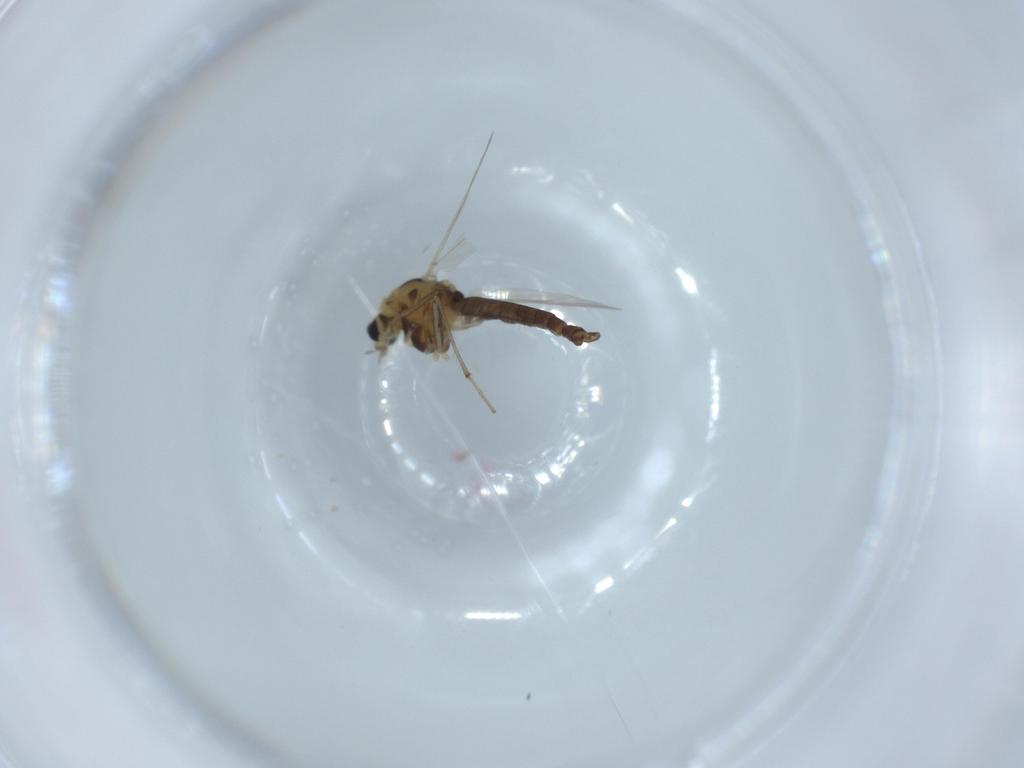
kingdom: Animalia
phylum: Arthropoda
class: Insecta
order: Diptera
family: Chironomidae
